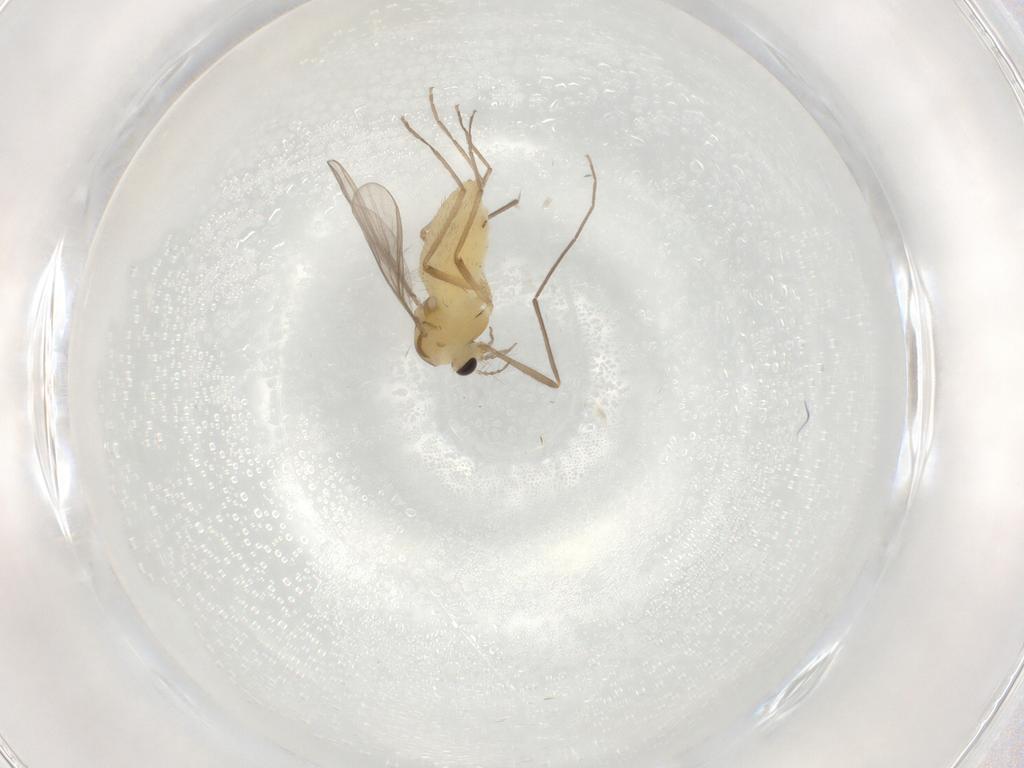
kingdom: Animalia
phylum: Arthropoda
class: Insecta
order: Diptera
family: Chironomidae
